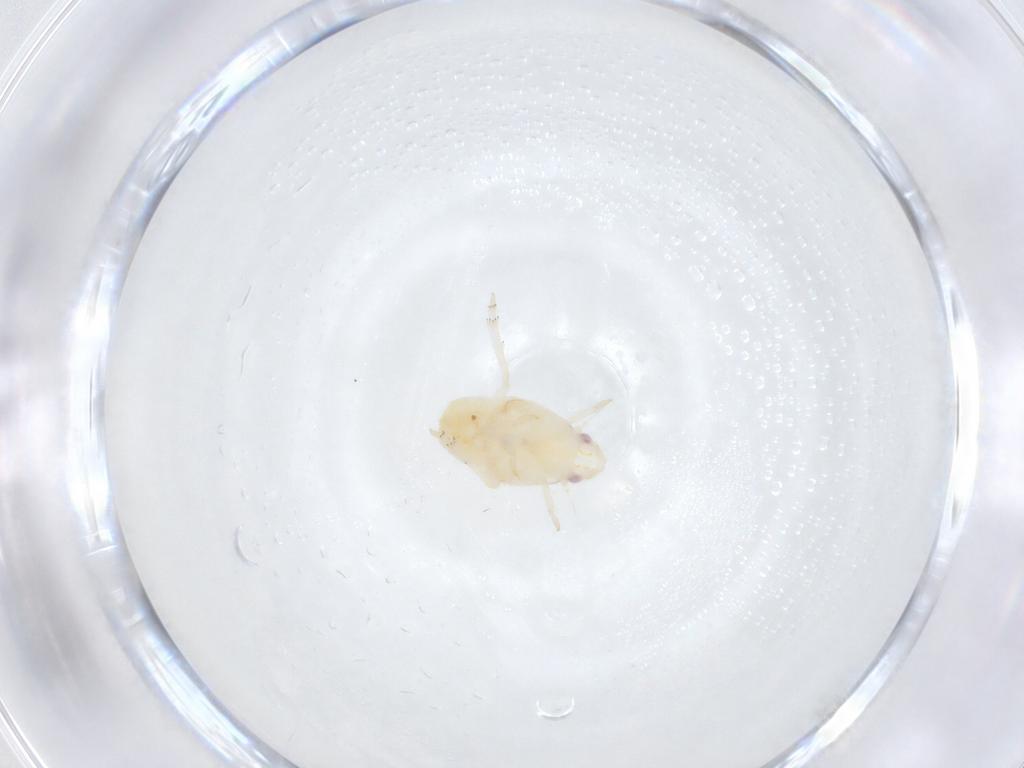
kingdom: Animalia
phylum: Arthropoda
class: Insecta
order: Hemiptera
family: Flatidae
